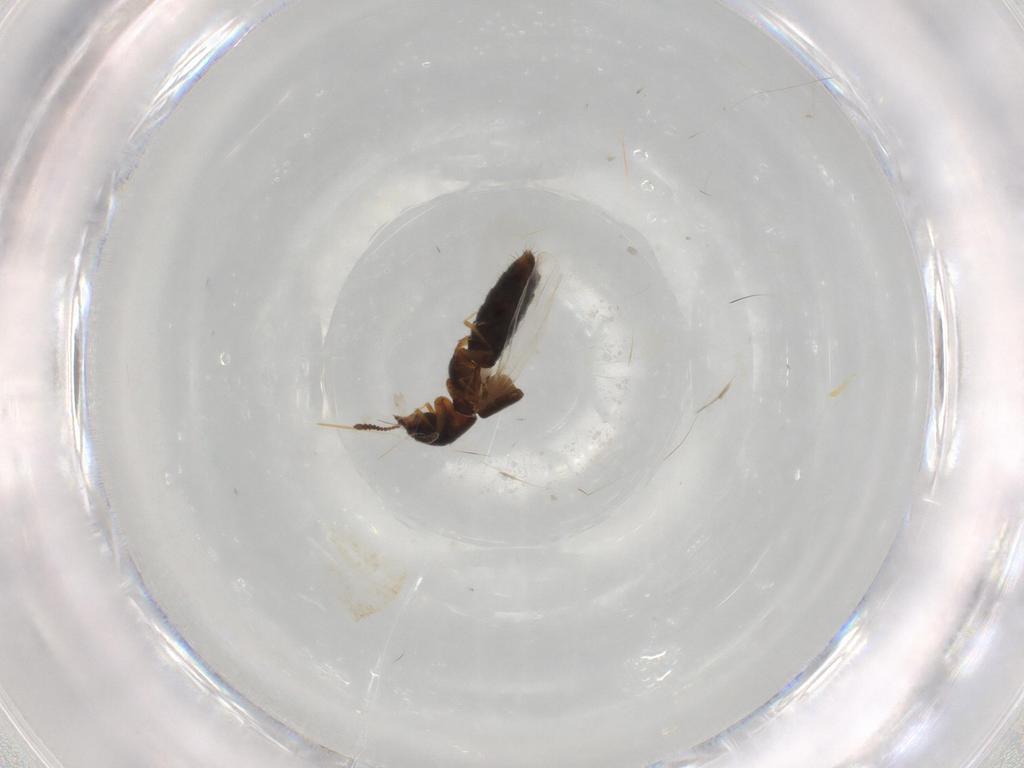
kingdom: Animalia
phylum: Arthropoda
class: Insecta
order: Coleoptera
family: Staphylinidae
